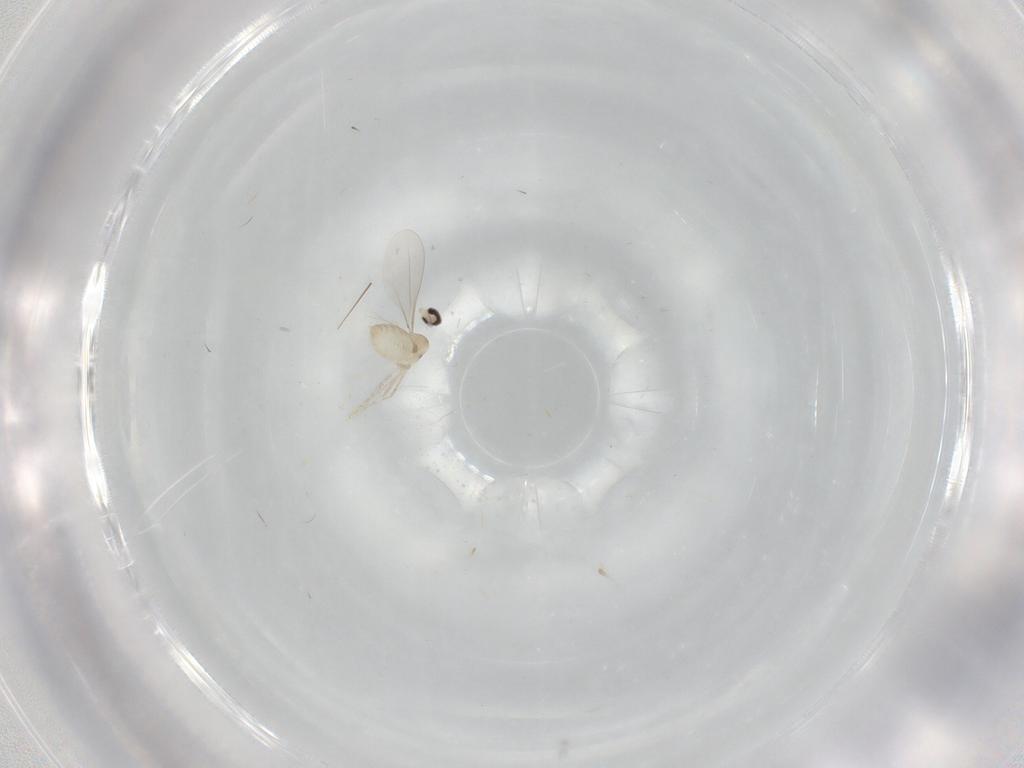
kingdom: Animalia
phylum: Arthropoda
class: Insecta
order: Diptera
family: Cecidomyiidae
